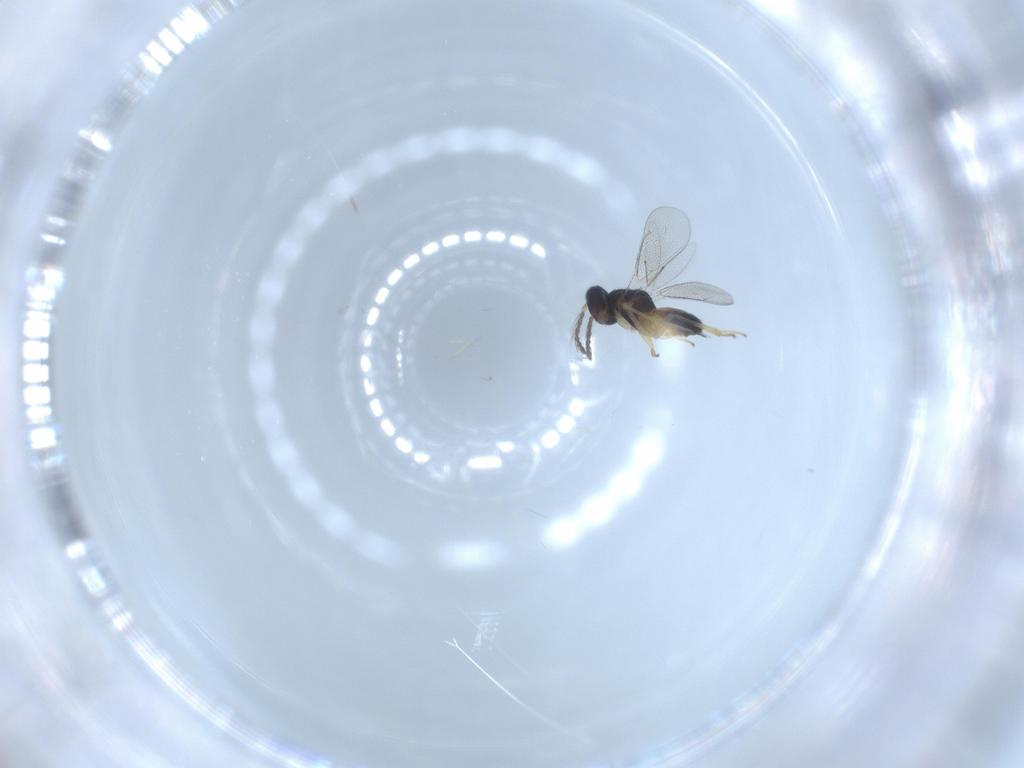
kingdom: Animalia
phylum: Arthropoda
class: Insecta
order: Hymenoptera
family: Eulophidae
